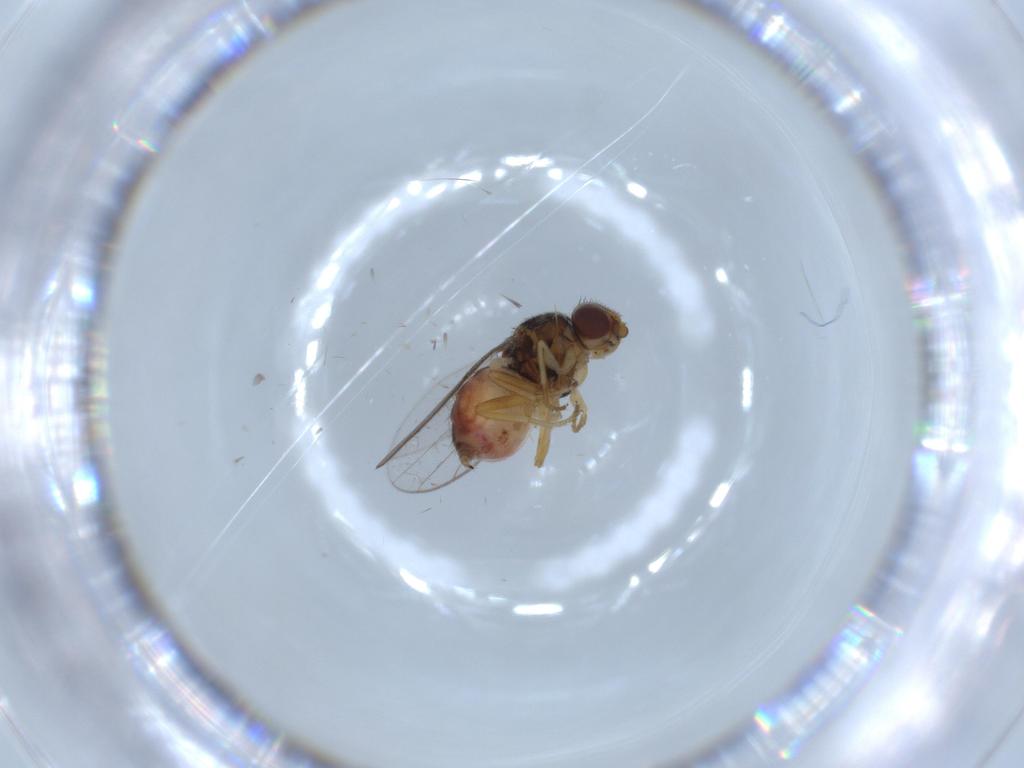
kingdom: Animalia
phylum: Arthropoda
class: Insecta
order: Diptera
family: Chloropidae
